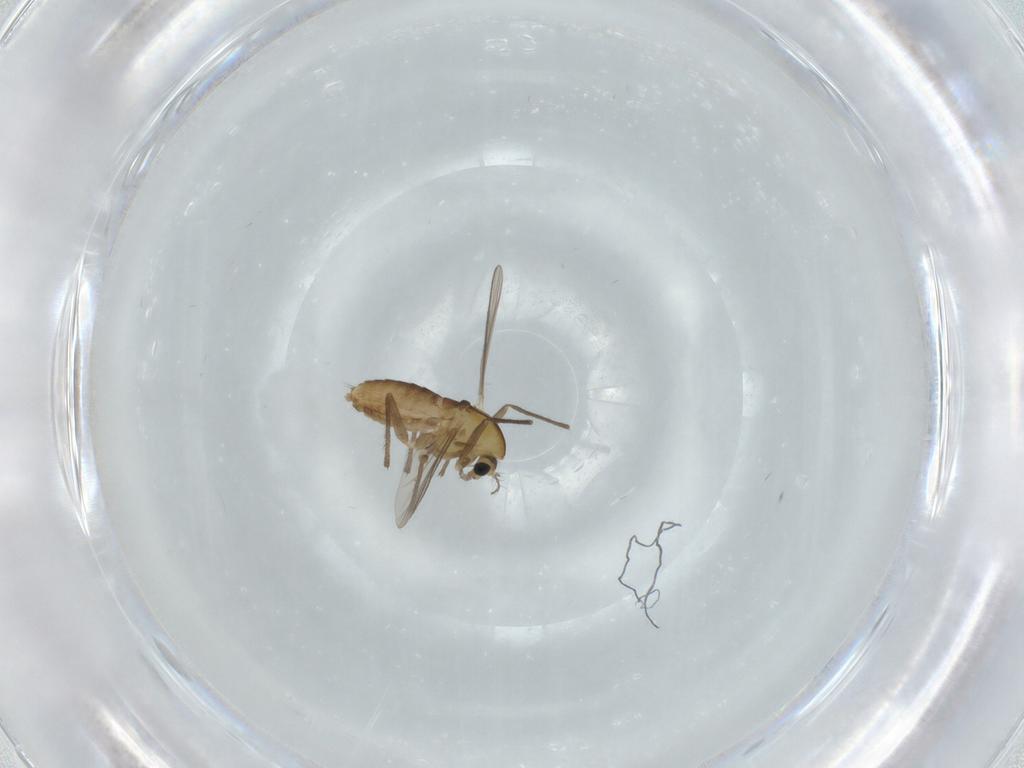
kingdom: Animalia
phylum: Arthropoda
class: Insecta
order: Diptera
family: Chironomidae
